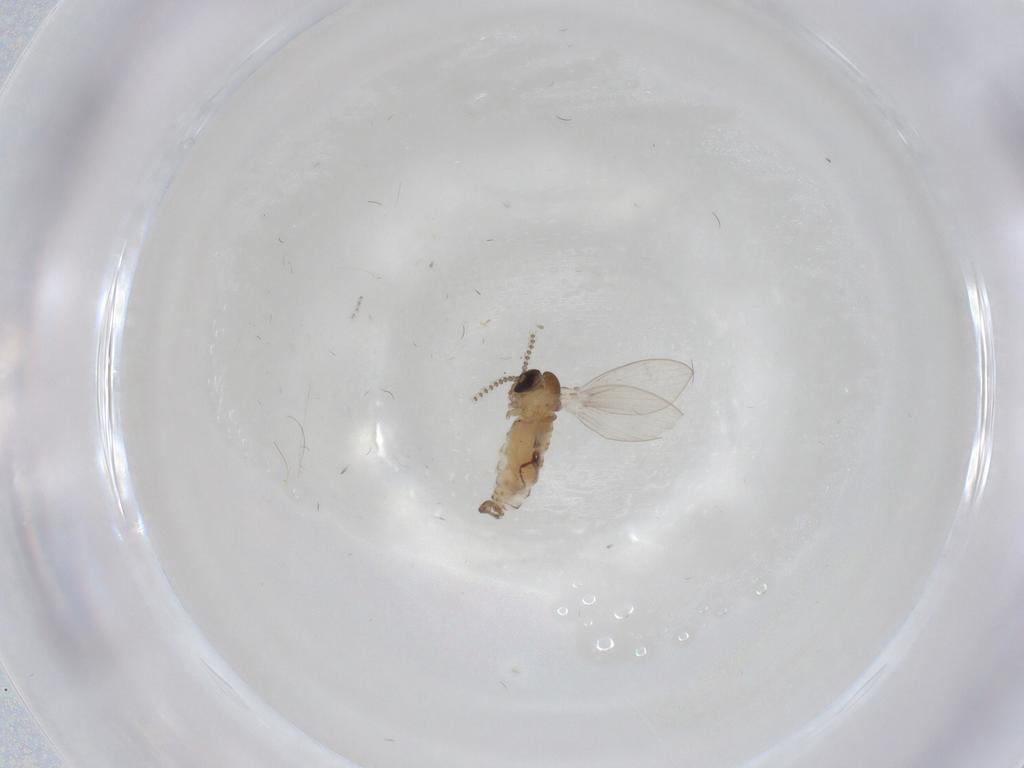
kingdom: Animalia
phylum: Arthropoda
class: Insecta
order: Diptera
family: Psychodidae
